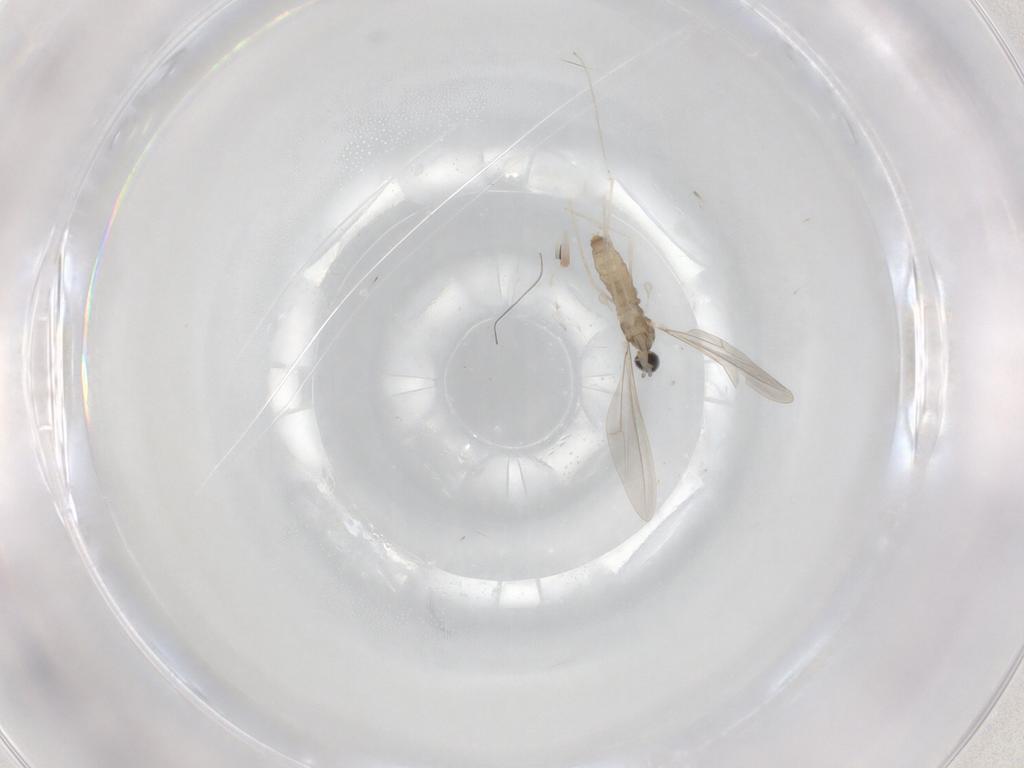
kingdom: Animalia
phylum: Arthropoda
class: Insecta
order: Diptera
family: Cecidomyiidae
